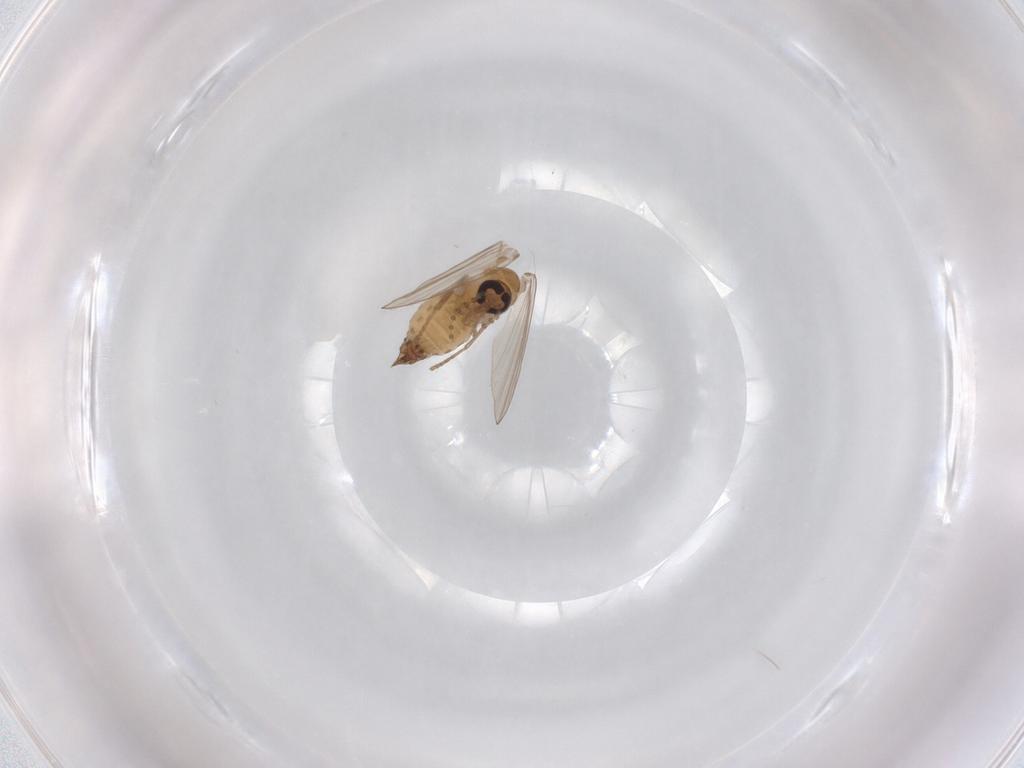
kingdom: Animalia
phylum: Arthropoda
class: Insecta
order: Diptera
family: Psychodidae
